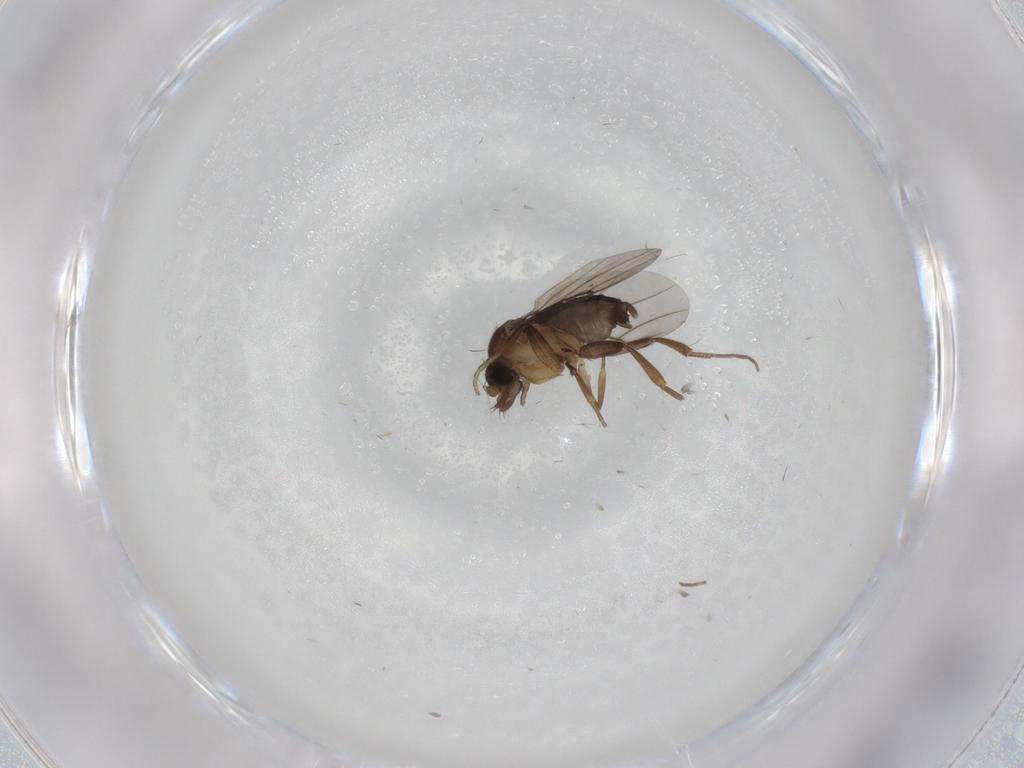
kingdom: Animalia
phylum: Arthropoda
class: Insecta
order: Diptera
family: Phoridae
